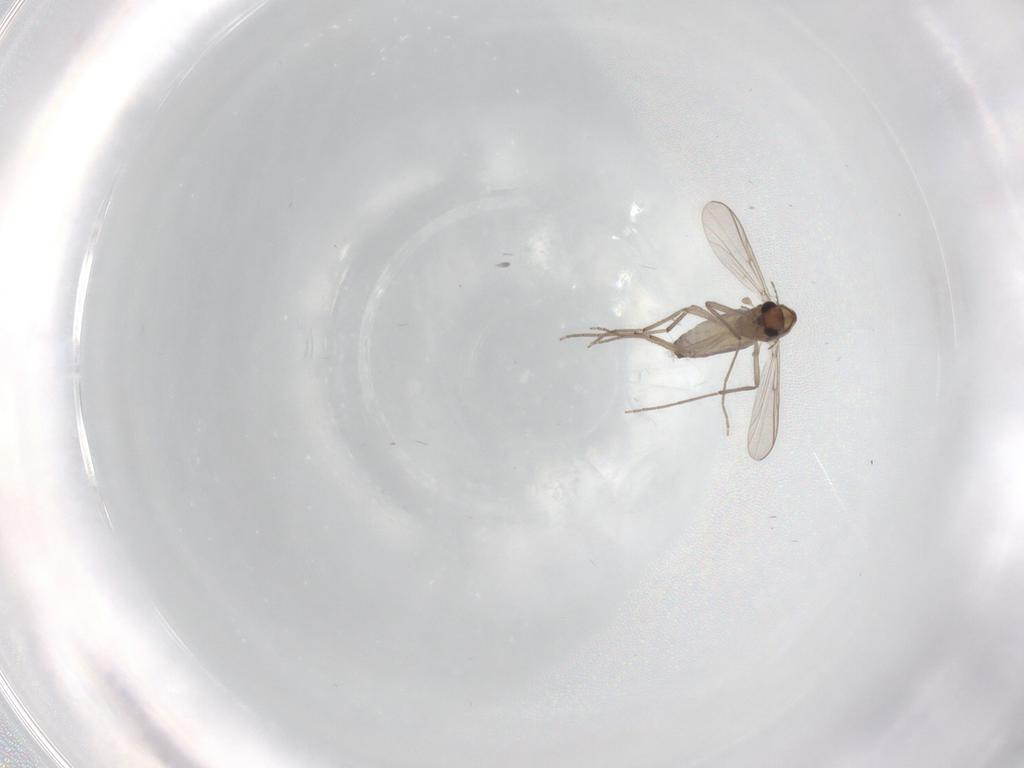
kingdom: Animalia
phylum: Arthropoda
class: Insecta
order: Diptera
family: Chironomidae
